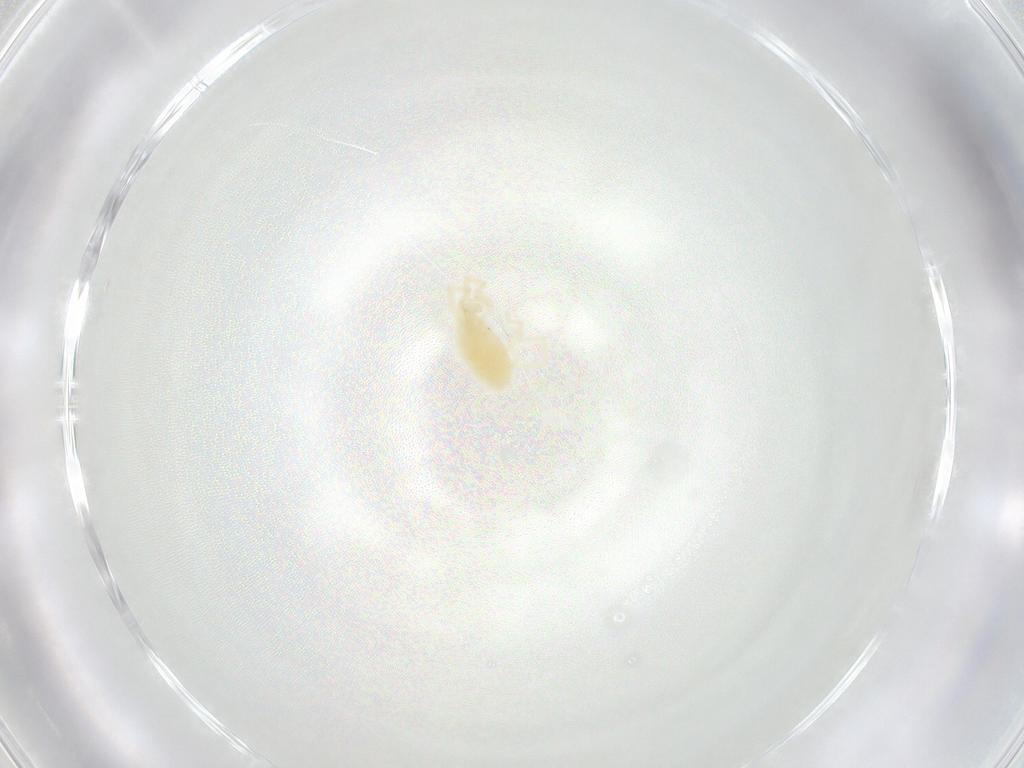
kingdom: Animalia
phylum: Arthropoda
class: Arachnida
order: Trombidiformes
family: Erythraeidae
